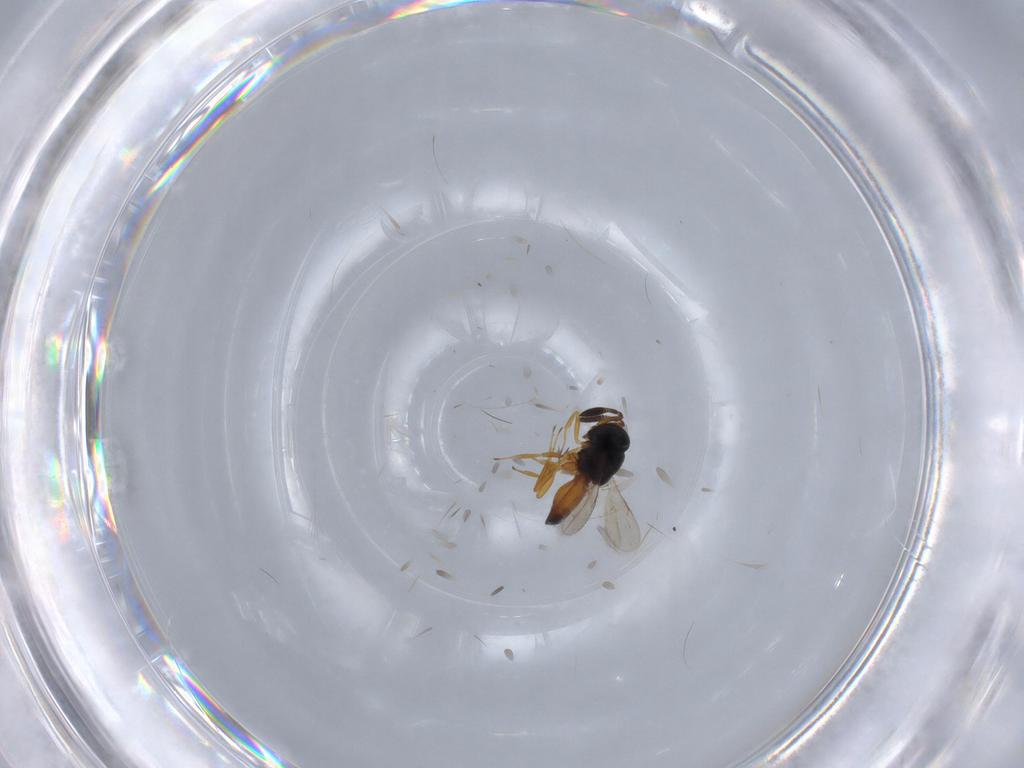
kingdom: Animalia
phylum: Arthropoda
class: Insecta
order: Hymenoptera
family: Scelionidae
